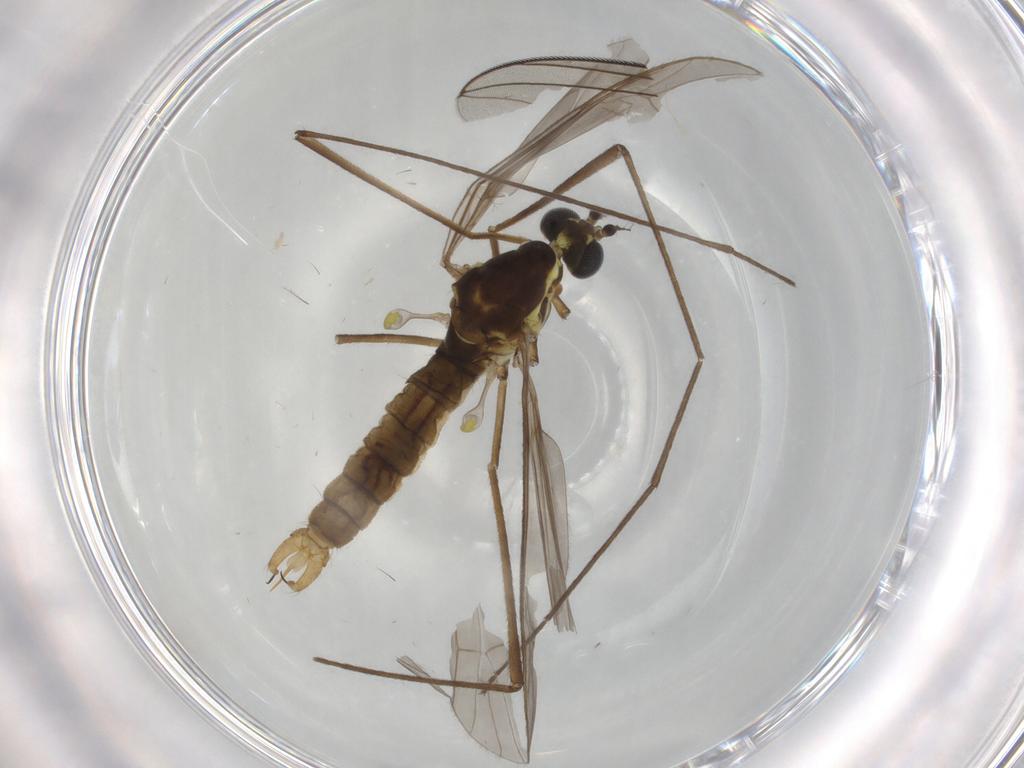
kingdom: Animalia
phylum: Arthropoda
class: Insecta
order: Diptera
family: Limoniidae
